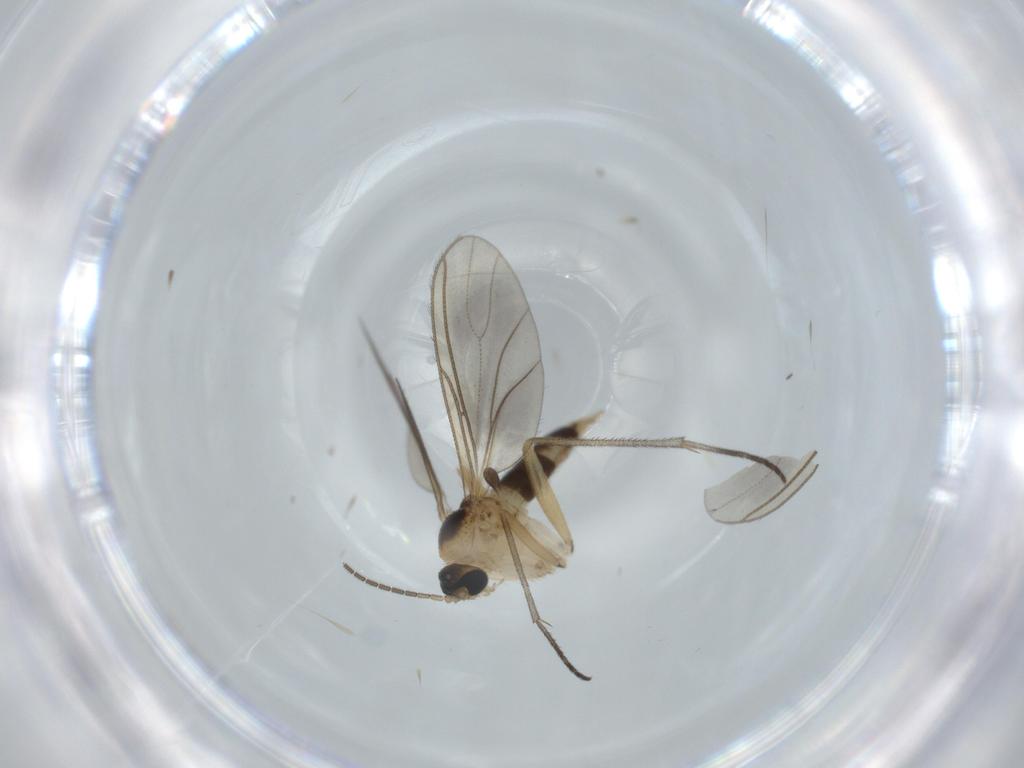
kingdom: Animalia
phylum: Arthropoda
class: Insecta
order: Diptera
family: Sciaridae
